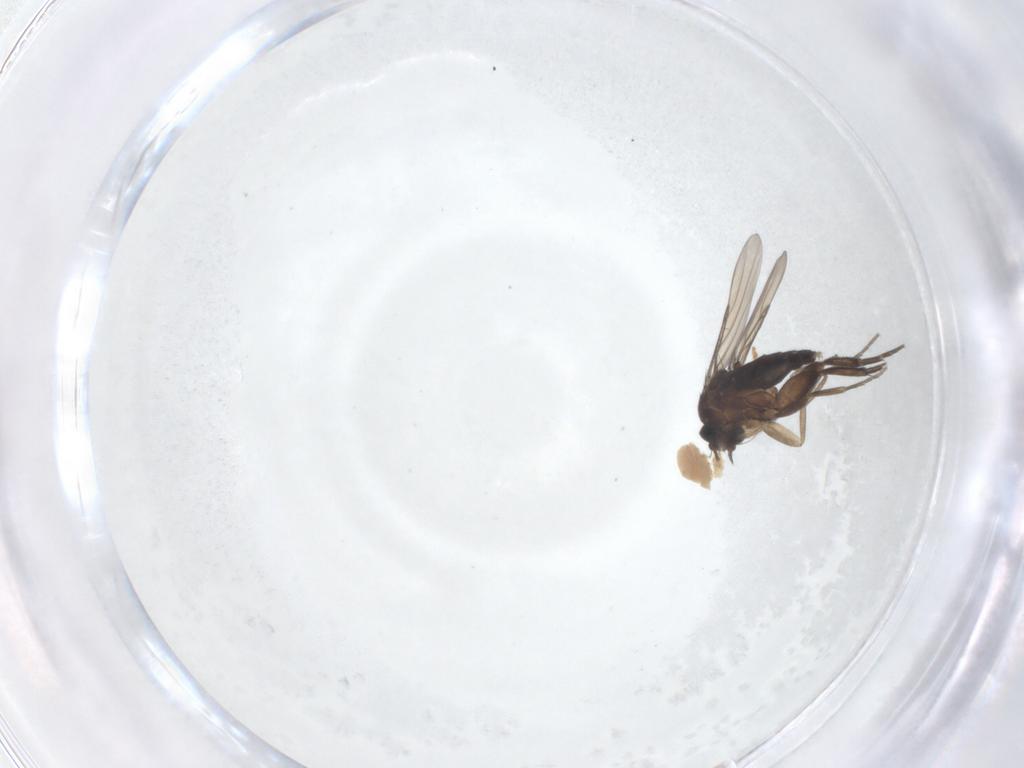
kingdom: Animalia
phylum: Arthropoda
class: Insecta
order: Diptera
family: Phoridae
